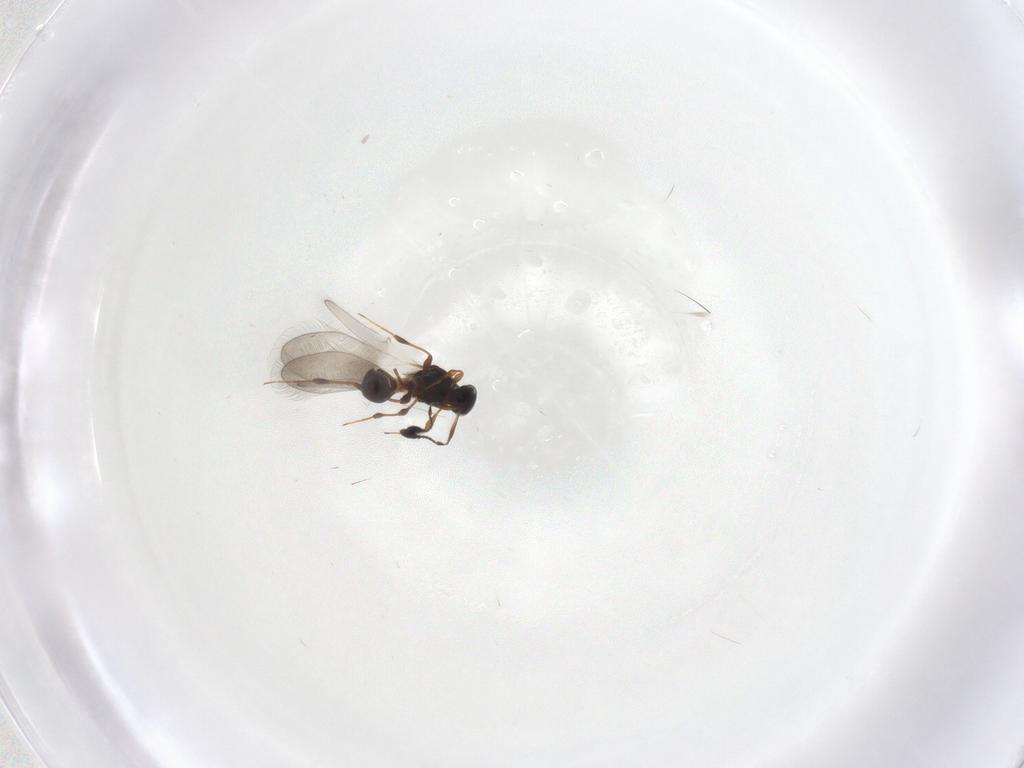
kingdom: Animalia
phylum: Arthropoda
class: Insecta
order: Hymenoptera
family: Platygastridae
